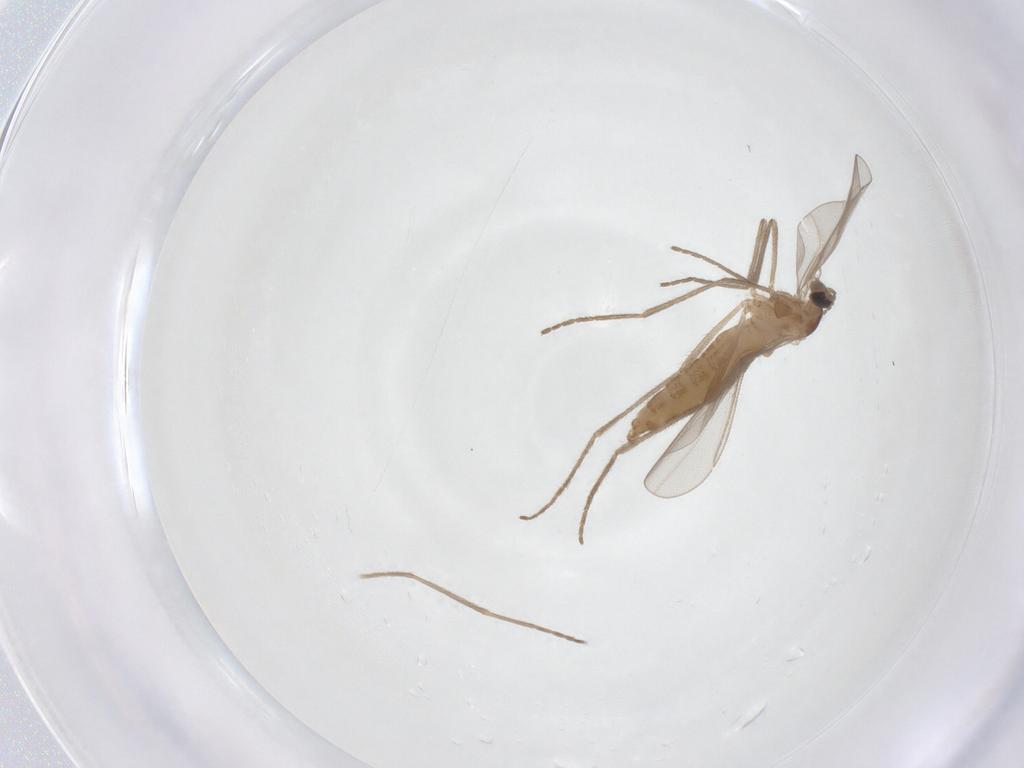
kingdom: Animalia
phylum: Arthropoda
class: Insecta
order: Diptera
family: Cecidomyiidae
